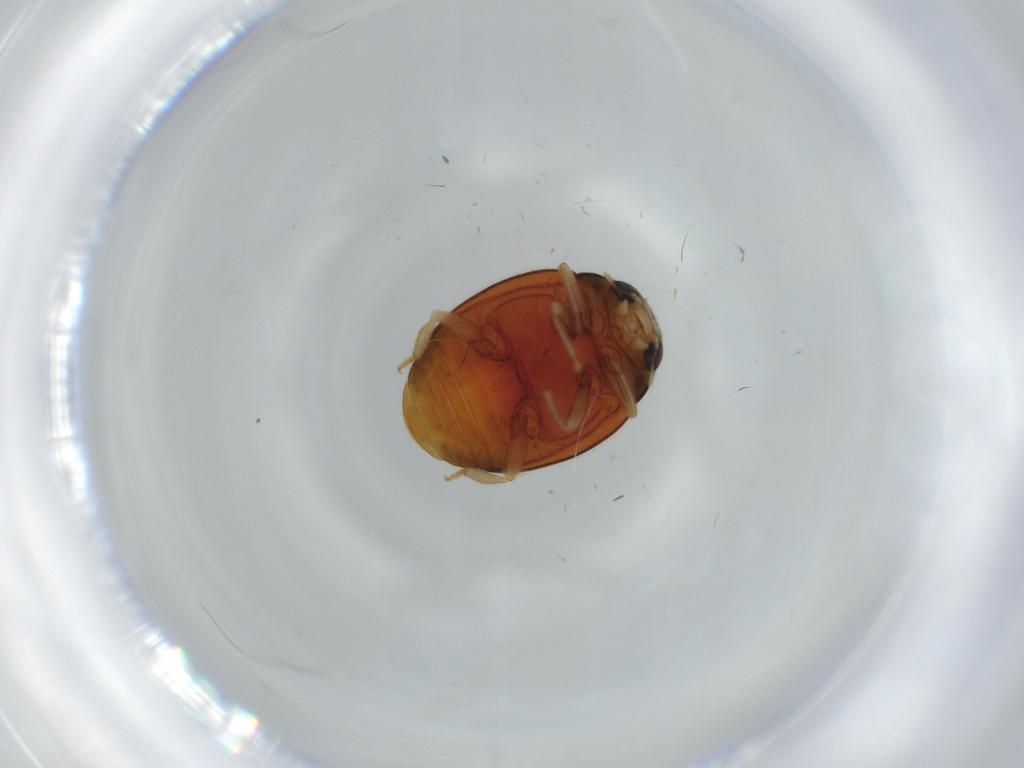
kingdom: Animalia
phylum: Arthropoda
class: Insecta
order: Coleoptera
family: Coccinellidae
